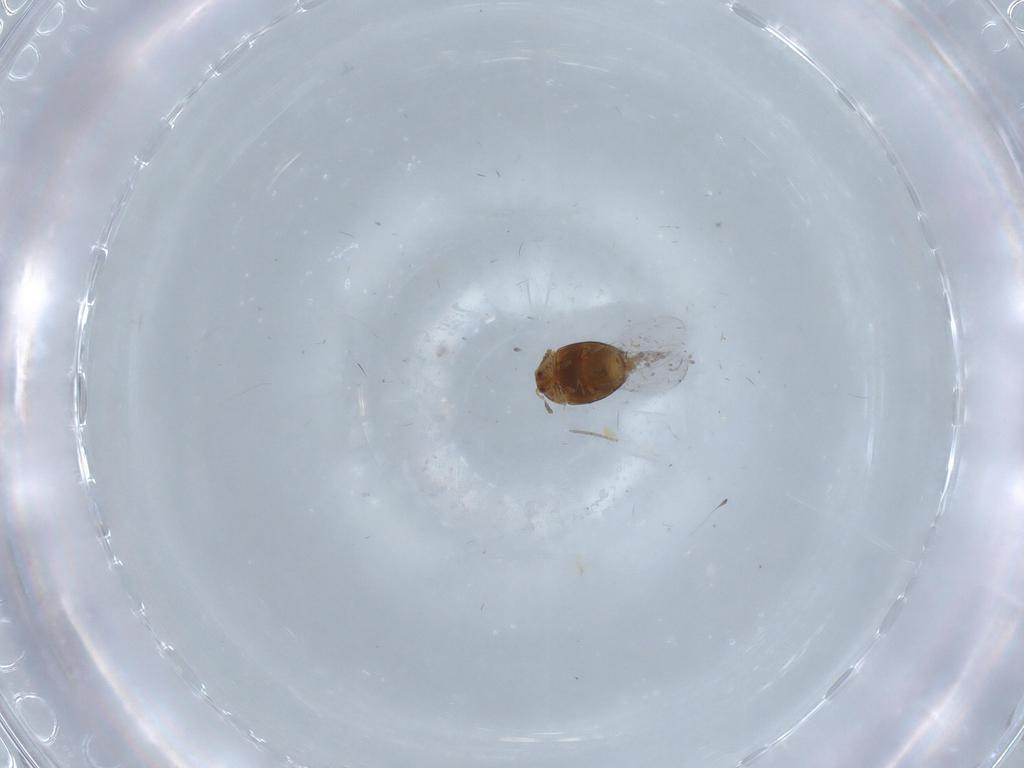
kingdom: Animalia
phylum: Arthropoda
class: Insecta
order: Coleoptera
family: Corylophidae
